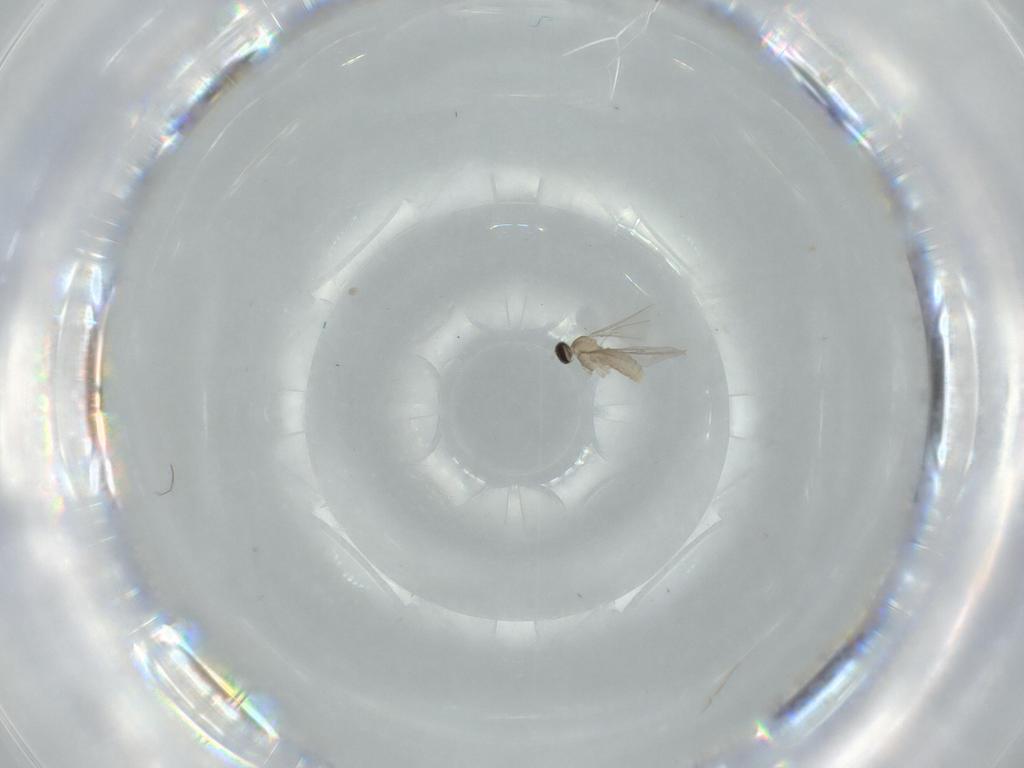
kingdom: Animalia
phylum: Arthropoda
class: Insecta
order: Diptera
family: Cecidomyiidae
